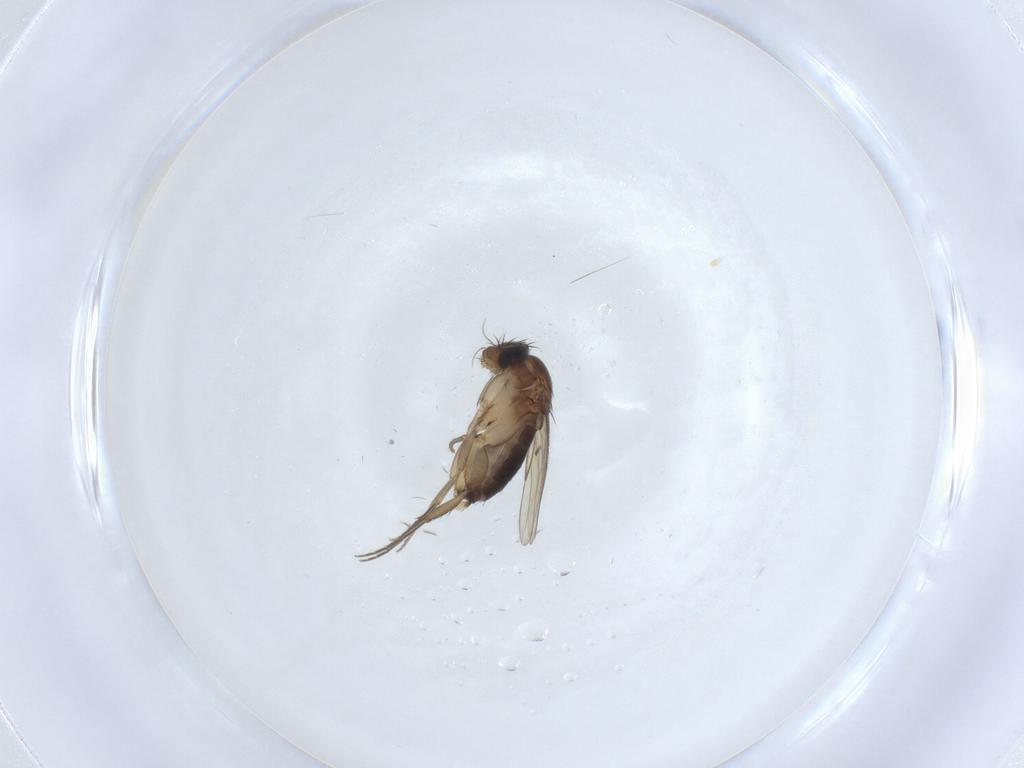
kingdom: Animalia
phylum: Arthropoda
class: Insecta
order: Diptera
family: Phoridae
